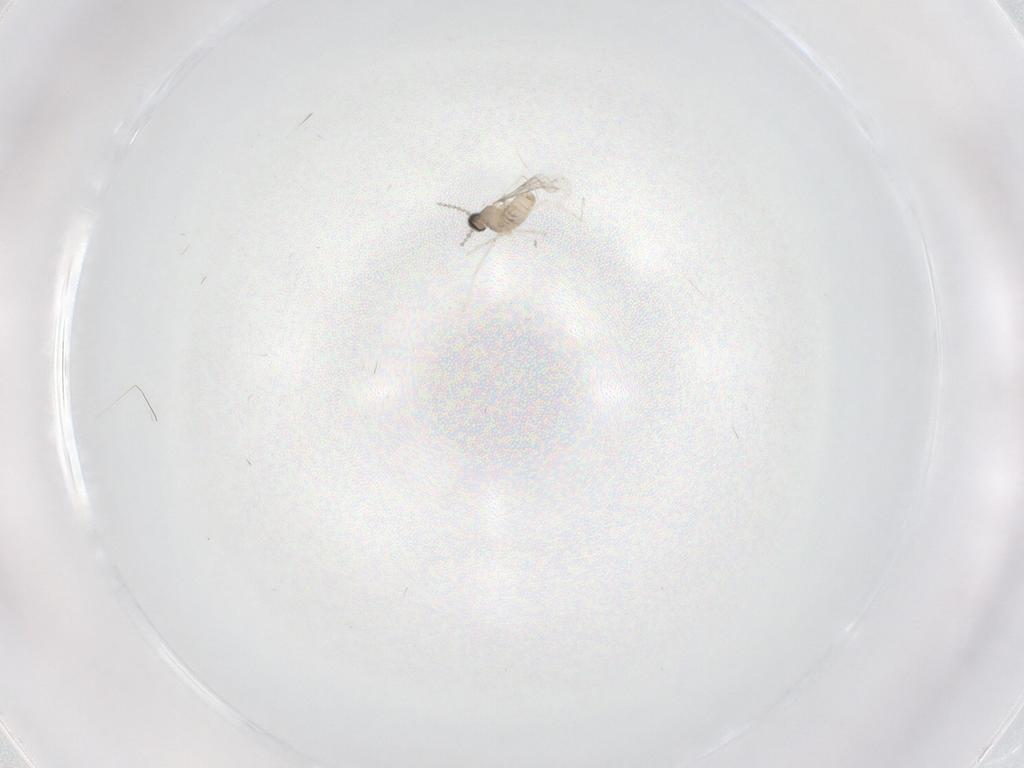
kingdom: Animalia
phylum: Arthropoda
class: Insecta
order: Diptera
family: Cecidomyiidae
